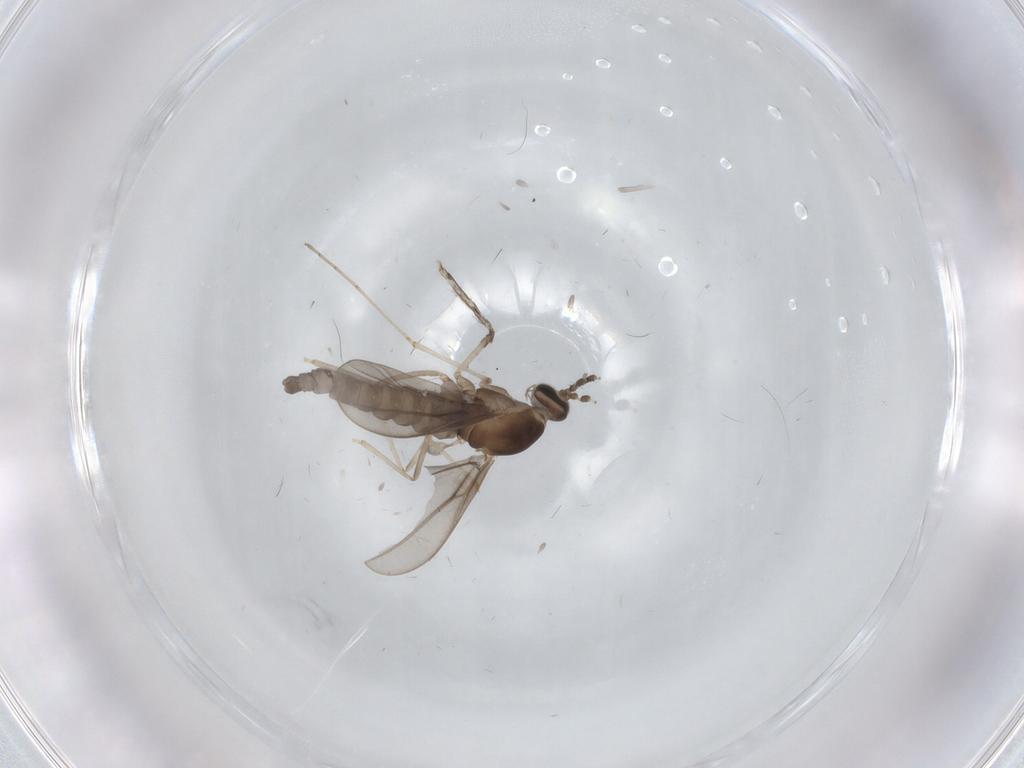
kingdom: Animalia
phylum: Arthropoda
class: Insecta
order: Diptera
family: Cecidomyiidae
